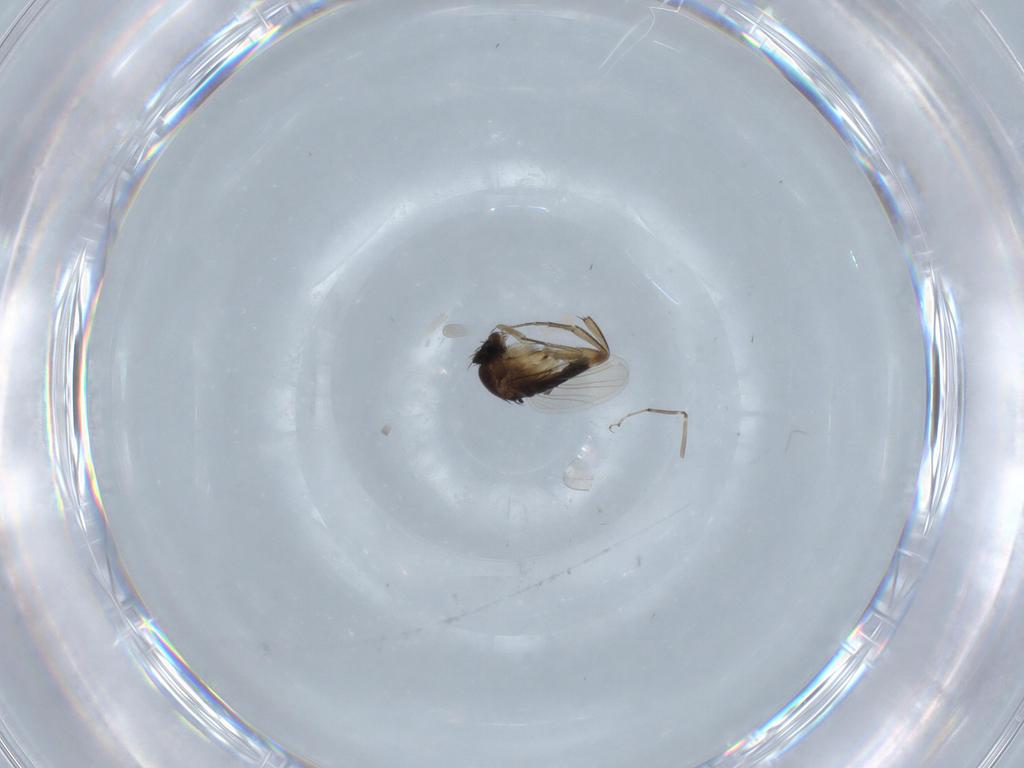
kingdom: Animalia
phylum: Arthropoda
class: Insecta
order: Diptera
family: Phoridae
